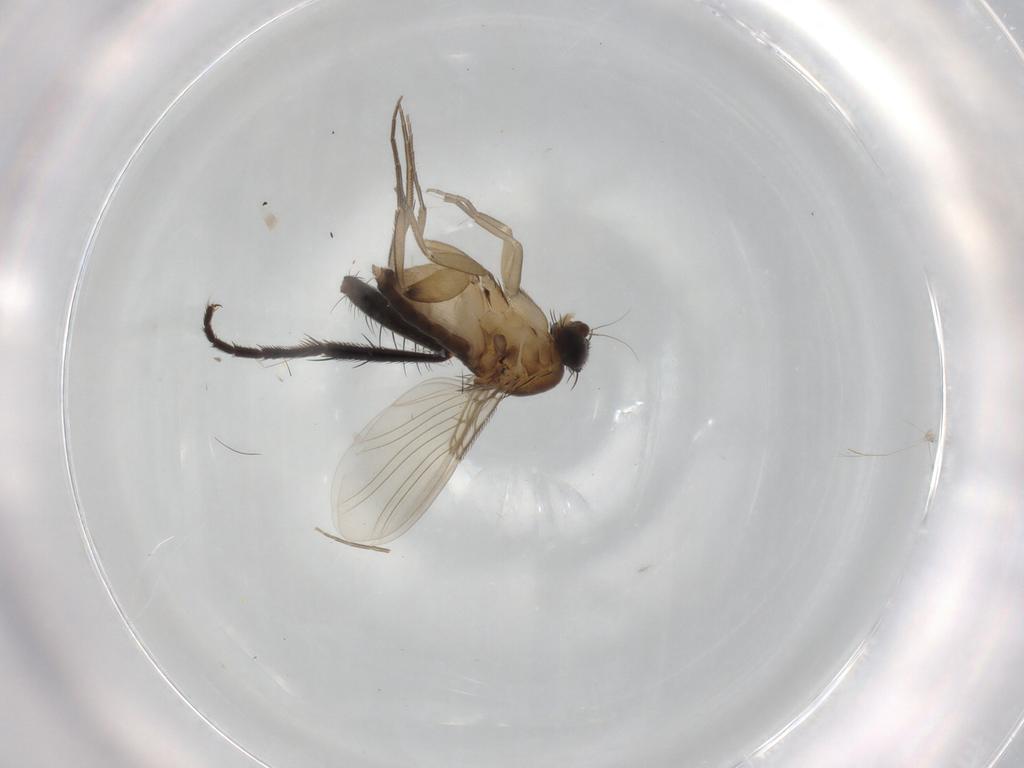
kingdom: Animalia
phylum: Arthropoda
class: Insecta
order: Diptera
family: Phoridae
